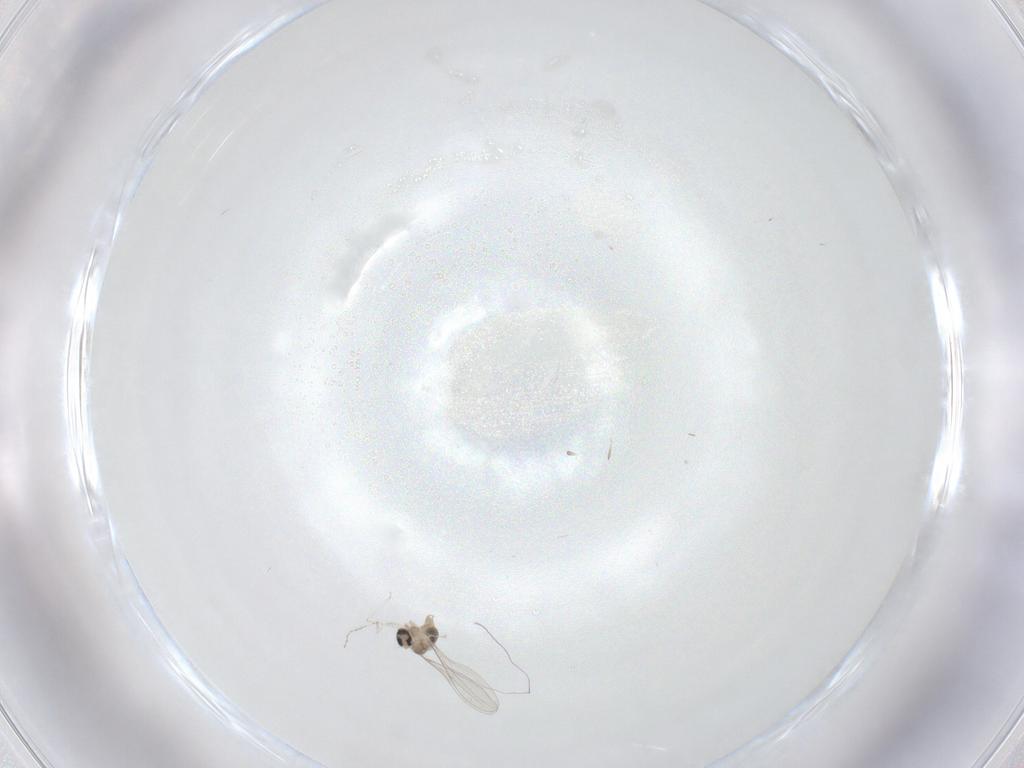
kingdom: Animalia
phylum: Arthropoda
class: Insecta
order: Diptera
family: Cecidomyiidae
